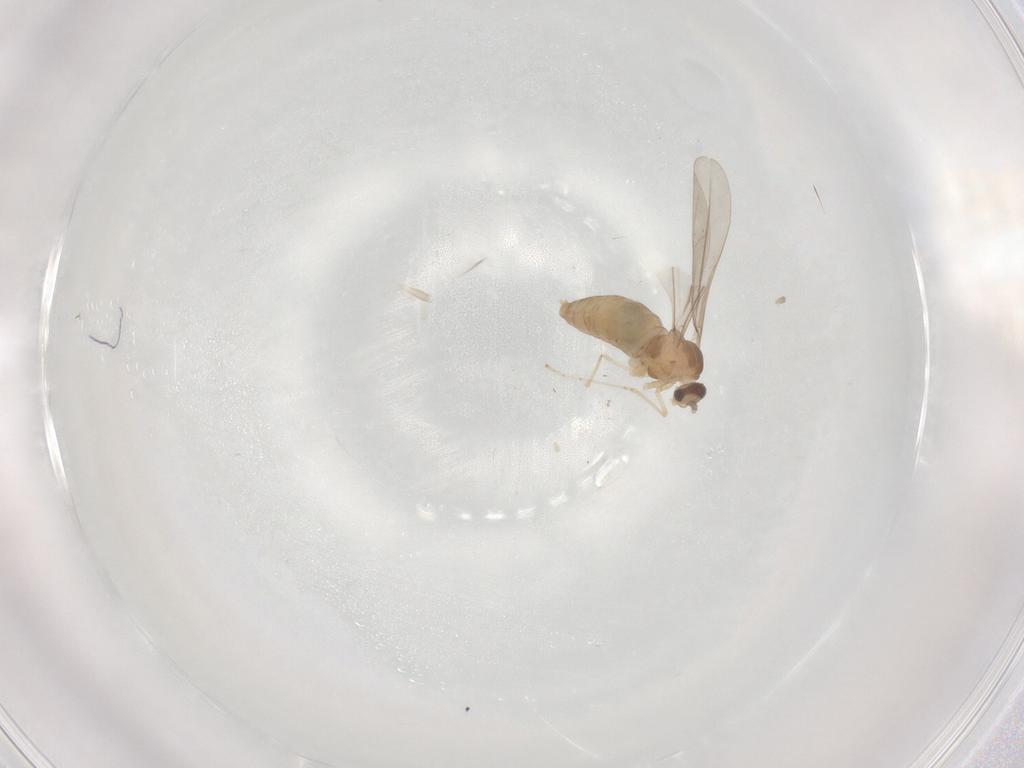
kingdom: Animalia
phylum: Arthropoda
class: Insecta
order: Diptera
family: Cecidomyiidae
